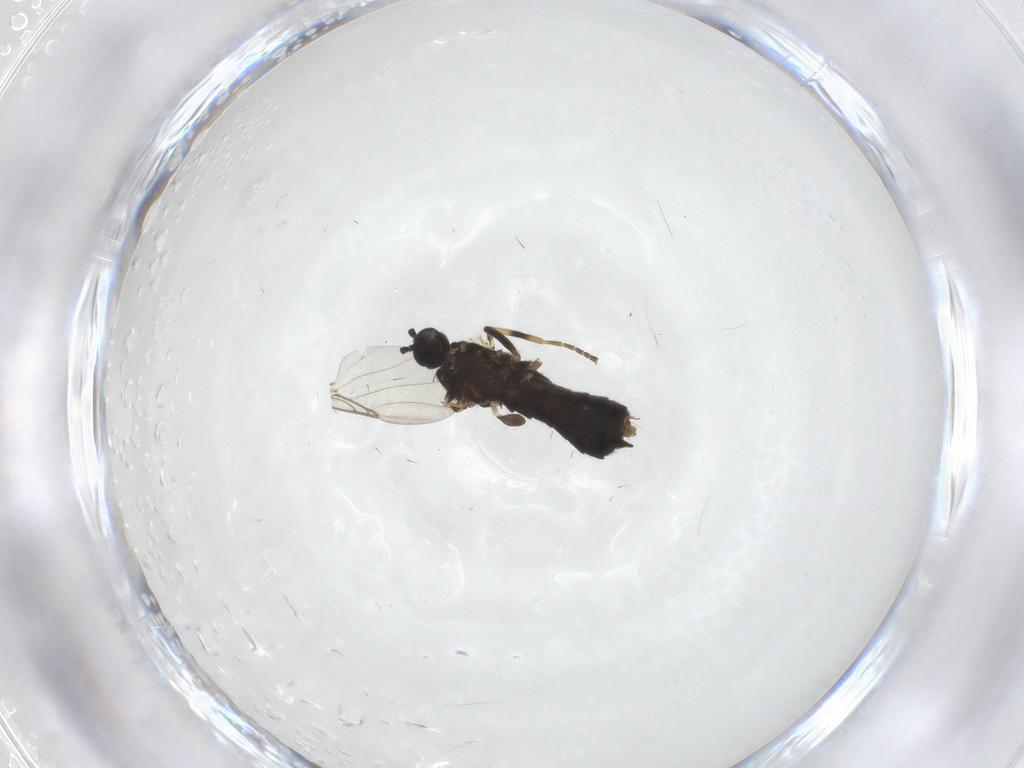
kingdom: Animalia
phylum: Arthropoda
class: Insecta
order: Diptera
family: Scatopsidae
